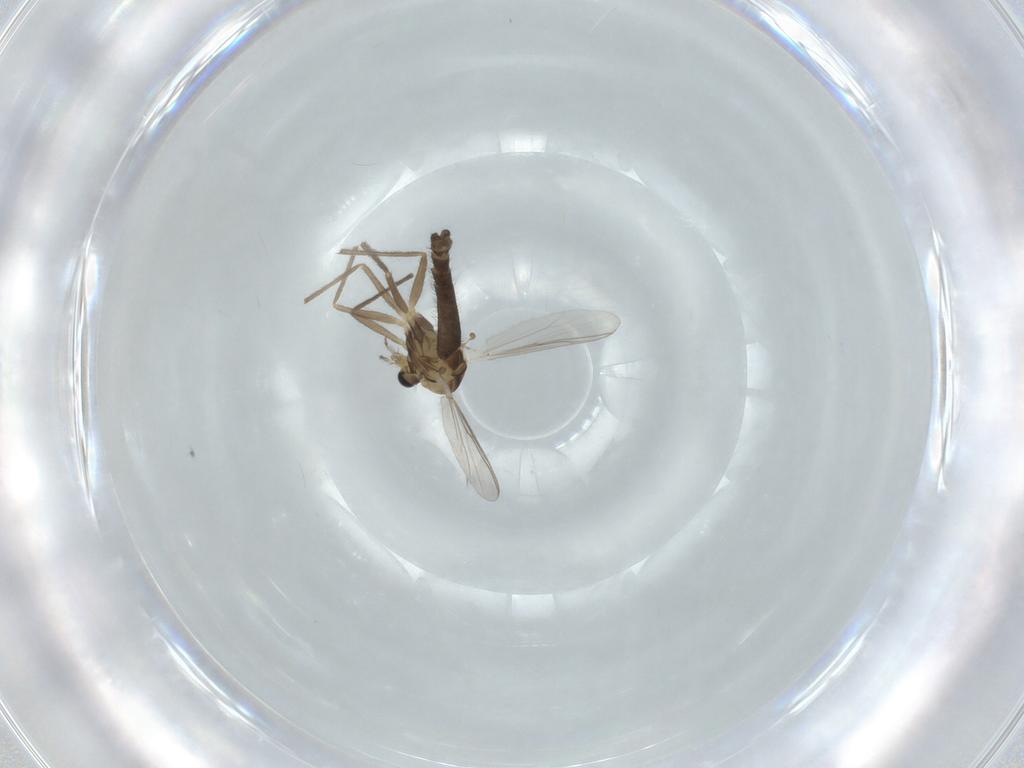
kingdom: Animalia
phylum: Arthropoda
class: Insecta
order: Diptera
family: Chironomidae
